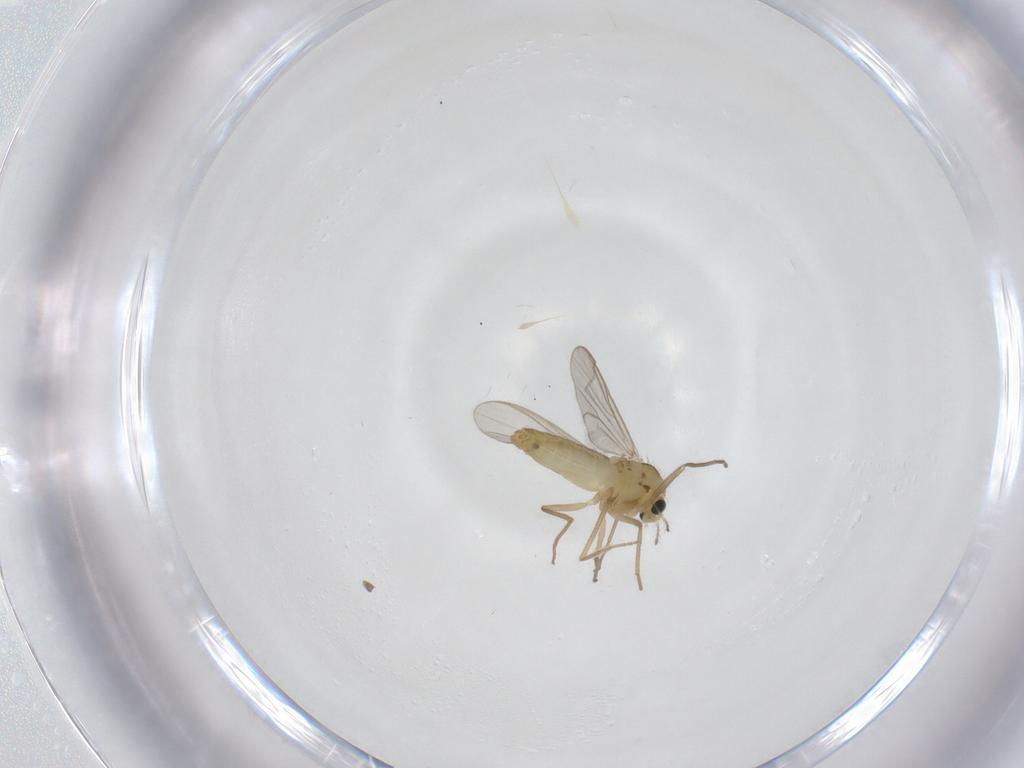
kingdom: Animalia
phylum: Arthropoda
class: Insecta
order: Diptera
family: Chironomidae
